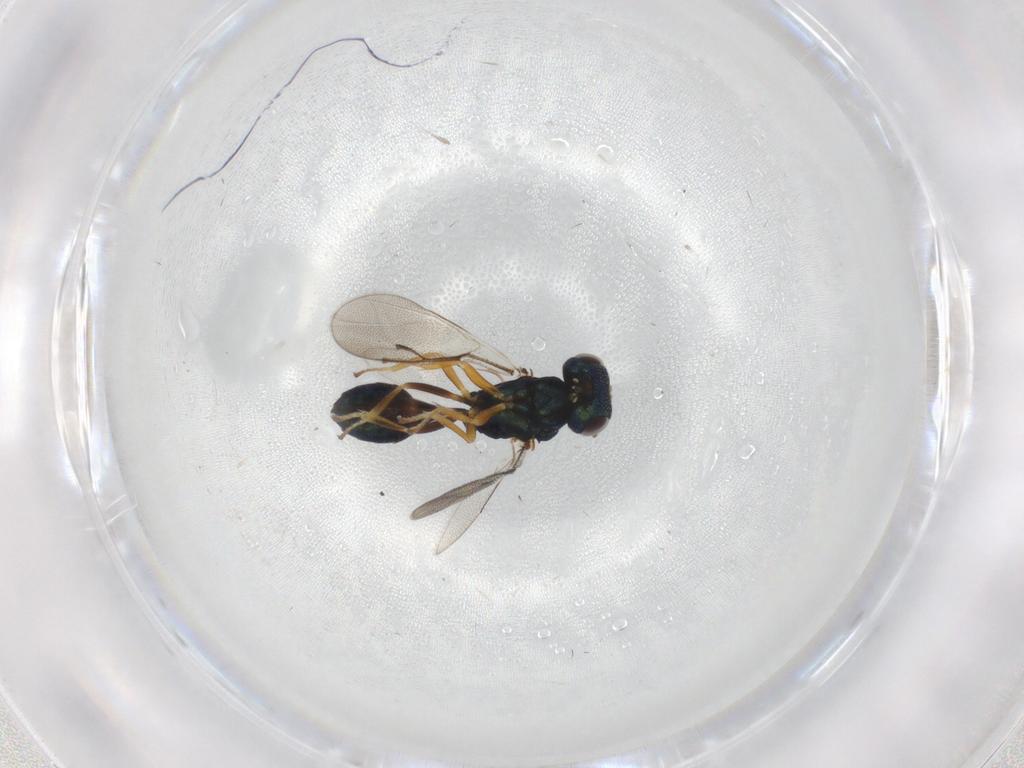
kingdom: Animalia
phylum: Arthropoda
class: Insecta
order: Hymenoptera
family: Pteromalidae
